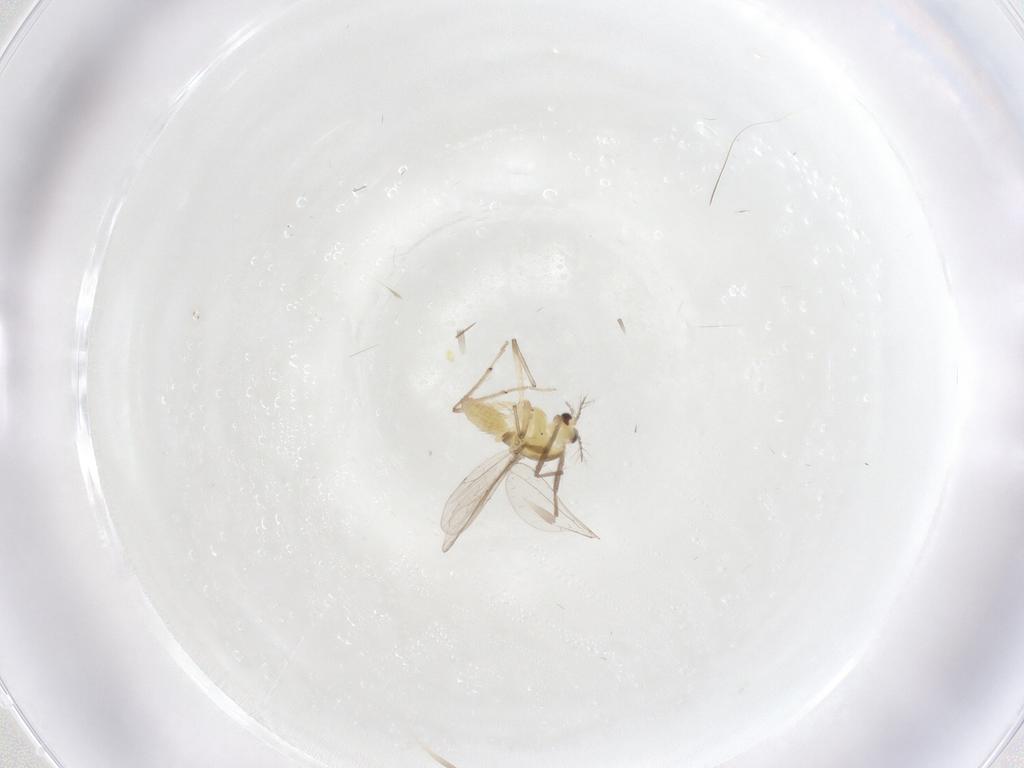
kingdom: Animalia
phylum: Arthropoda
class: Insecta
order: Diptera
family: Chironomidae
